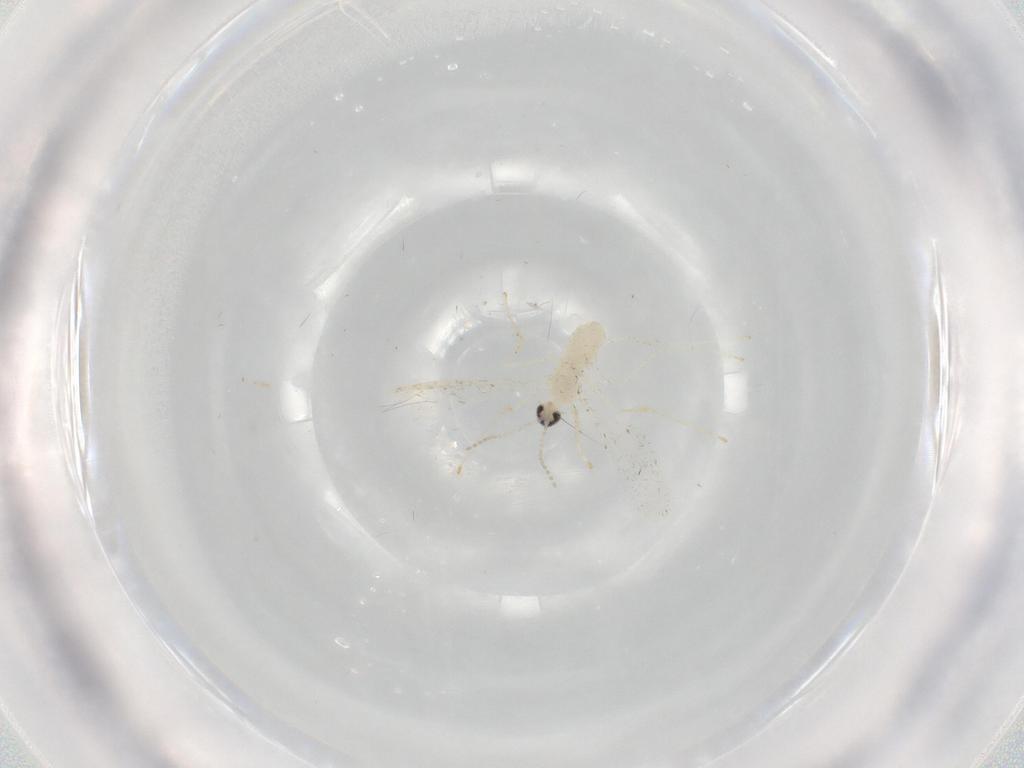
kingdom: Animalia
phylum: Arthropoda
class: Insecta
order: Diptera
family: Cecidomyiidae
